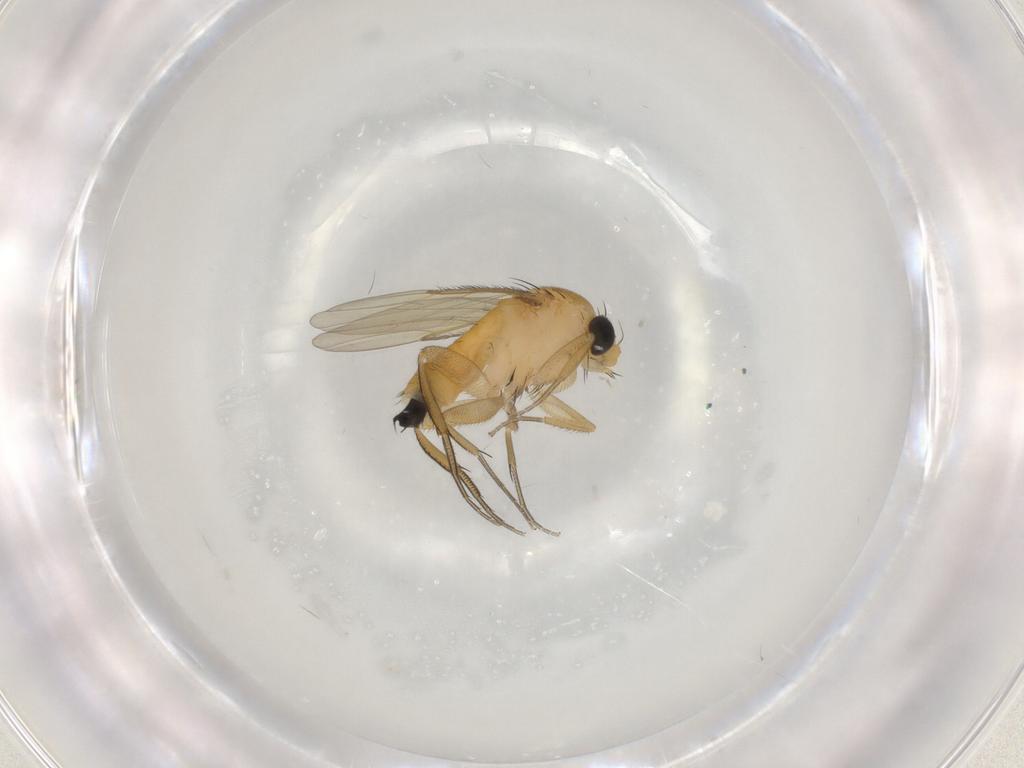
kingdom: Animalia
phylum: Arthropoda
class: Insecta
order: Diptera
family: Phoridae
